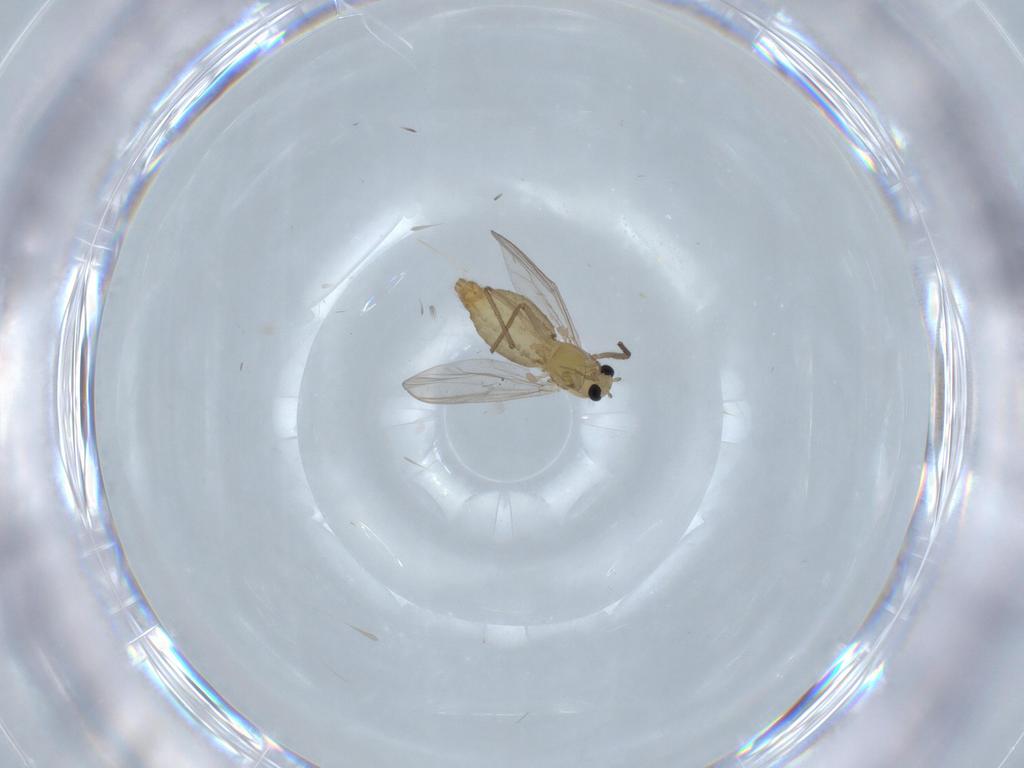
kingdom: Animalia
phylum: Arthropoda
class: Insecta
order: Diptera
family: Chironomidae
